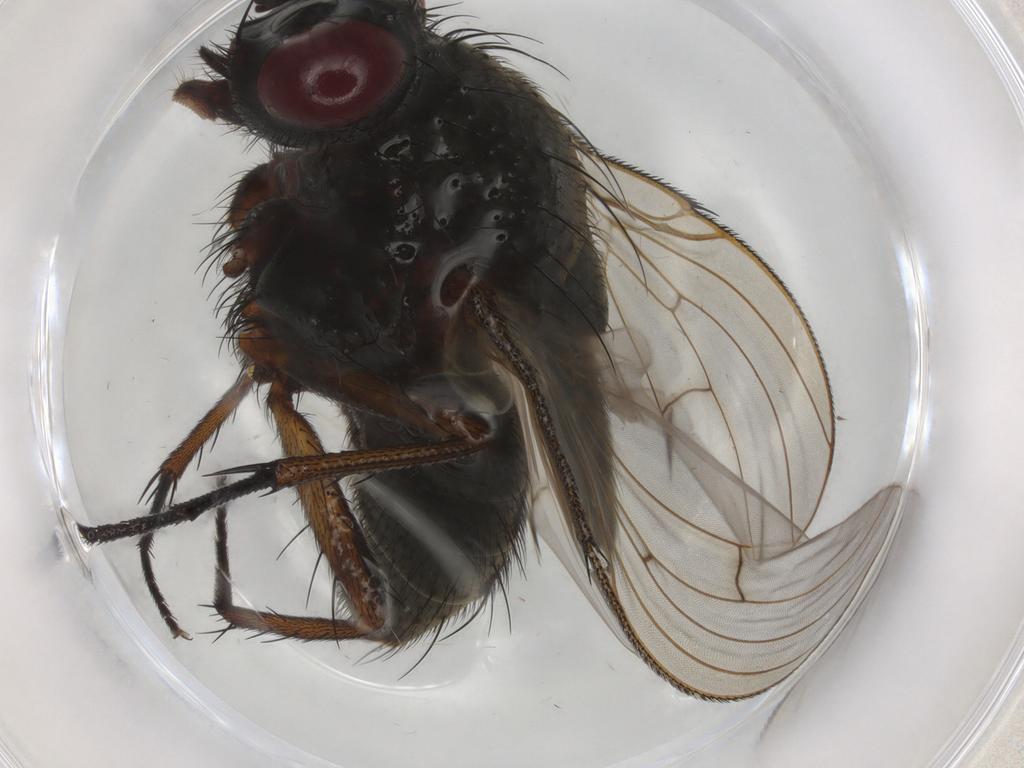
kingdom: Animalia
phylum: Arthropoda
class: Insecta
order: Diptera
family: Muscidae
